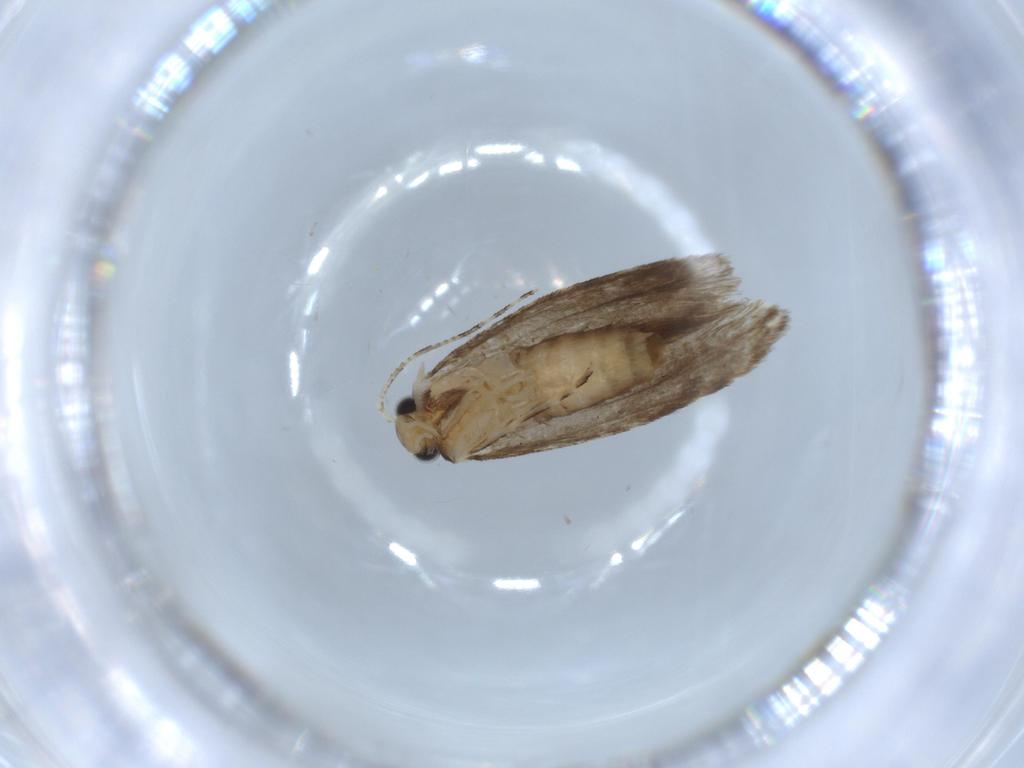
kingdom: Animalia
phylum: Arthropoda
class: Insecta
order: Lepidoptera
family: Tineidae
